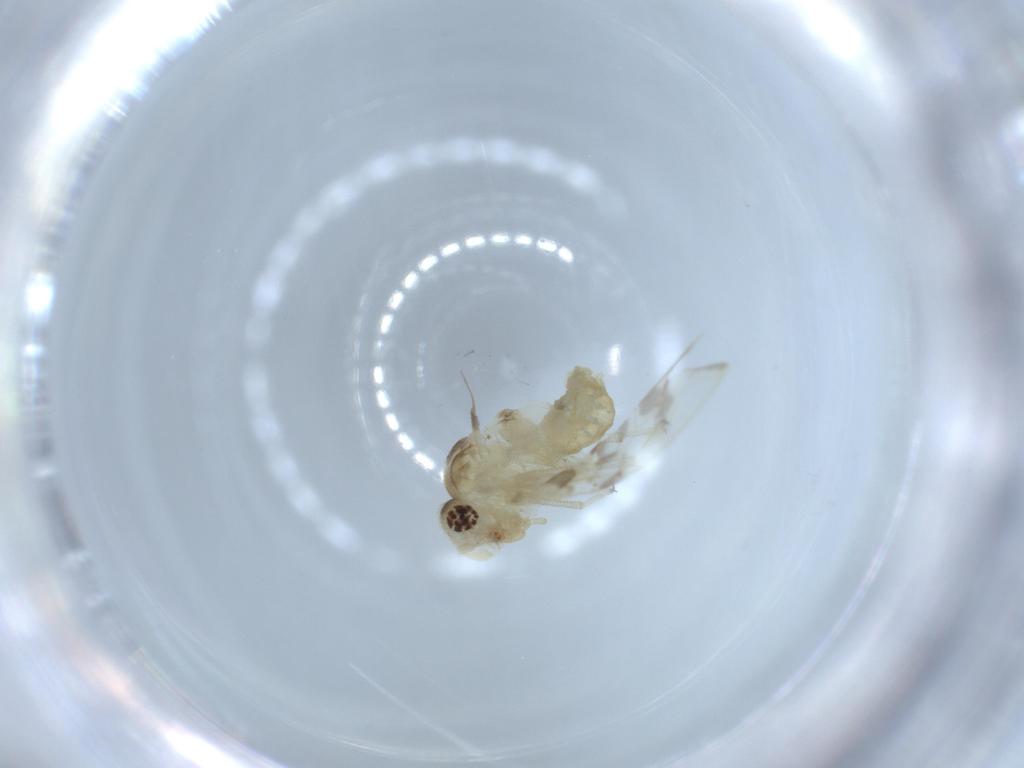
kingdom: Animalia
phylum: Arthropoda
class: Insecta
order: Psocodea
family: Caeciliusidae
